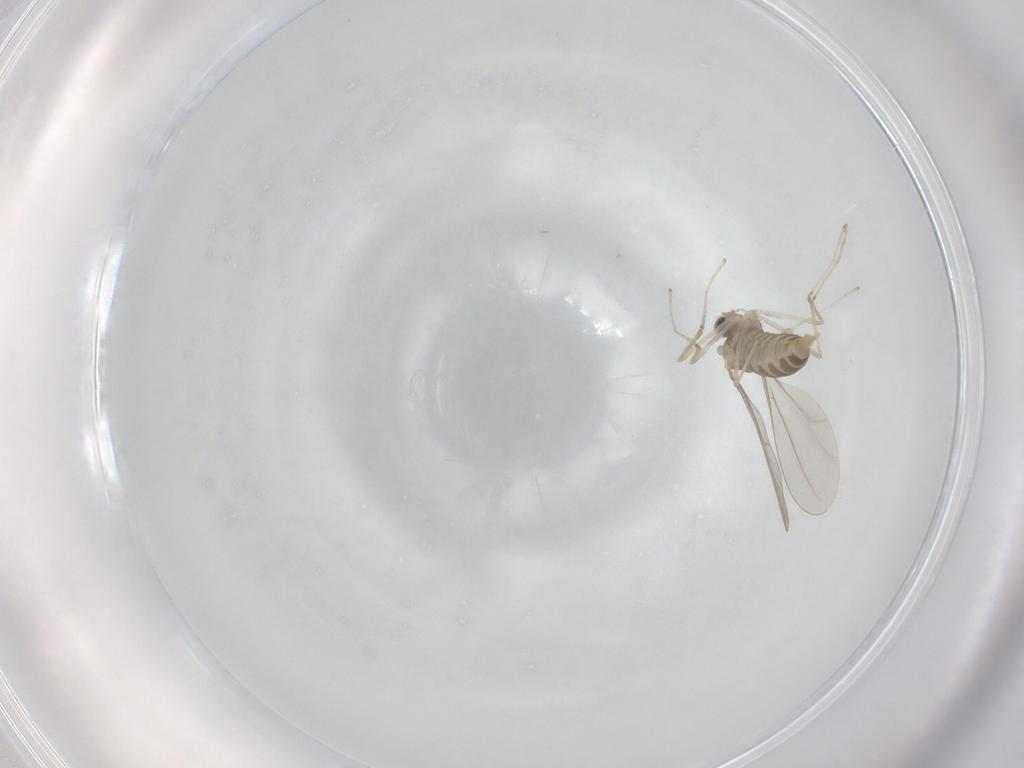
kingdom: Animalia
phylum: Arthropoda
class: Insecta
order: Diptera
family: Cecidomyiidae
